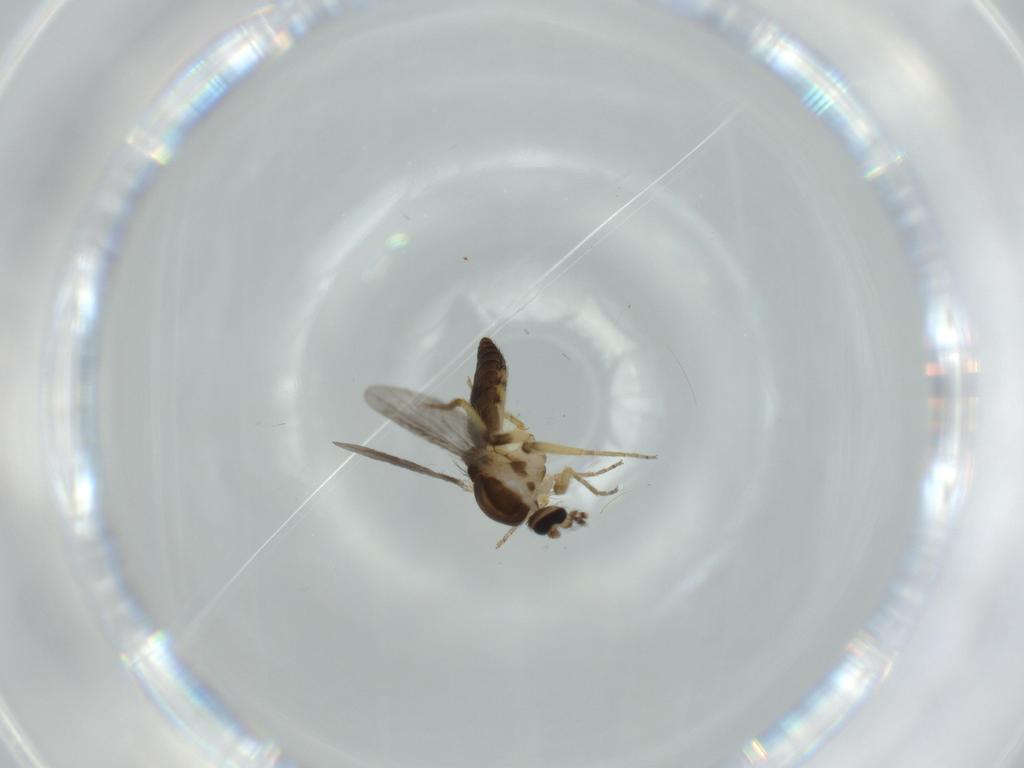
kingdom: Animalia
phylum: Arthropoda
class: Insecta
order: Diptera
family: Ceratopogonidae
